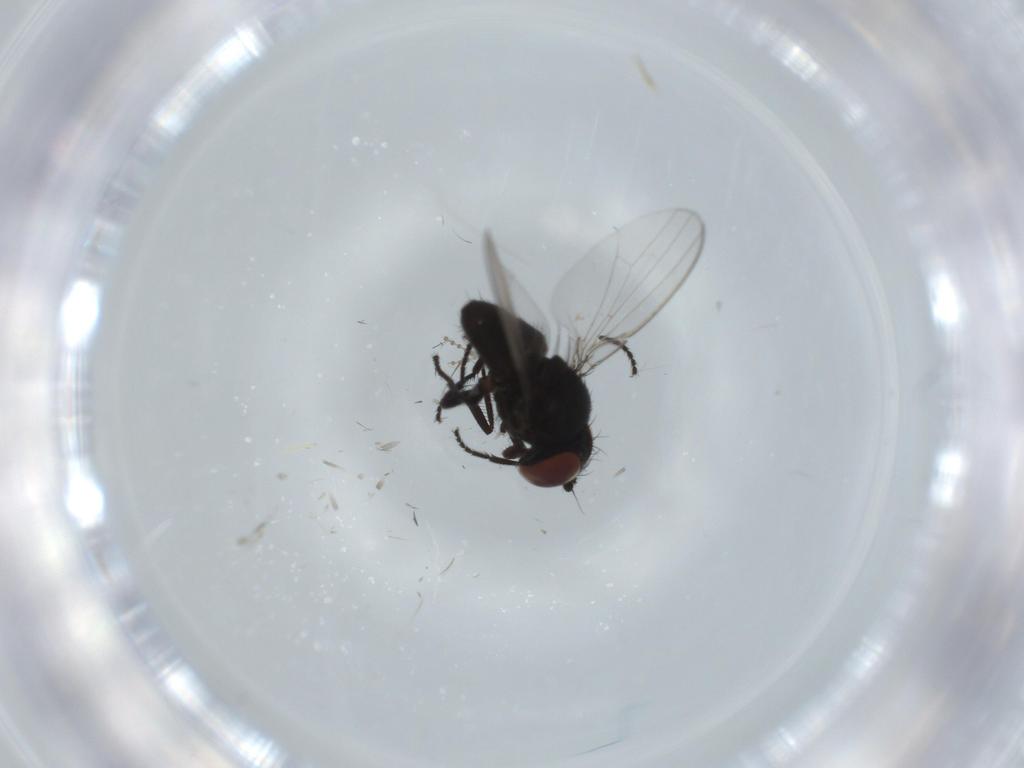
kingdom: Animalia
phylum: Arthropoda
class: Insecta
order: Diptera
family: Milichiidae
